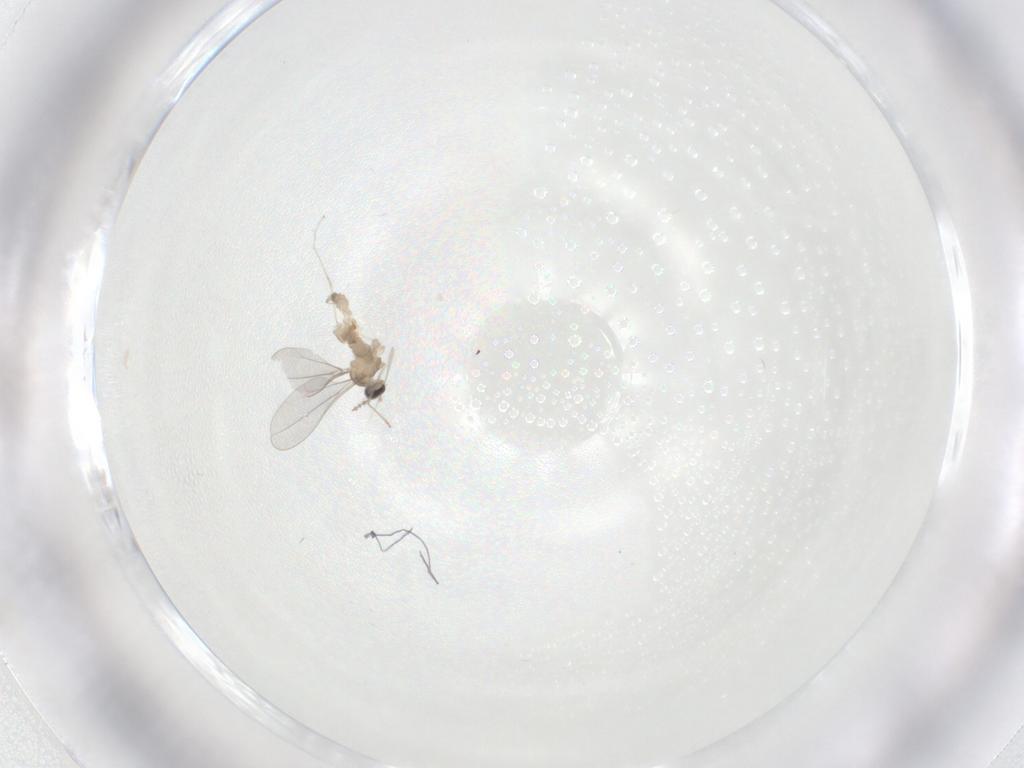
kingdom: Animalia
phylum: Arthropoda
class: Insecta
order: Diptera
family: Cecidomyiidae
